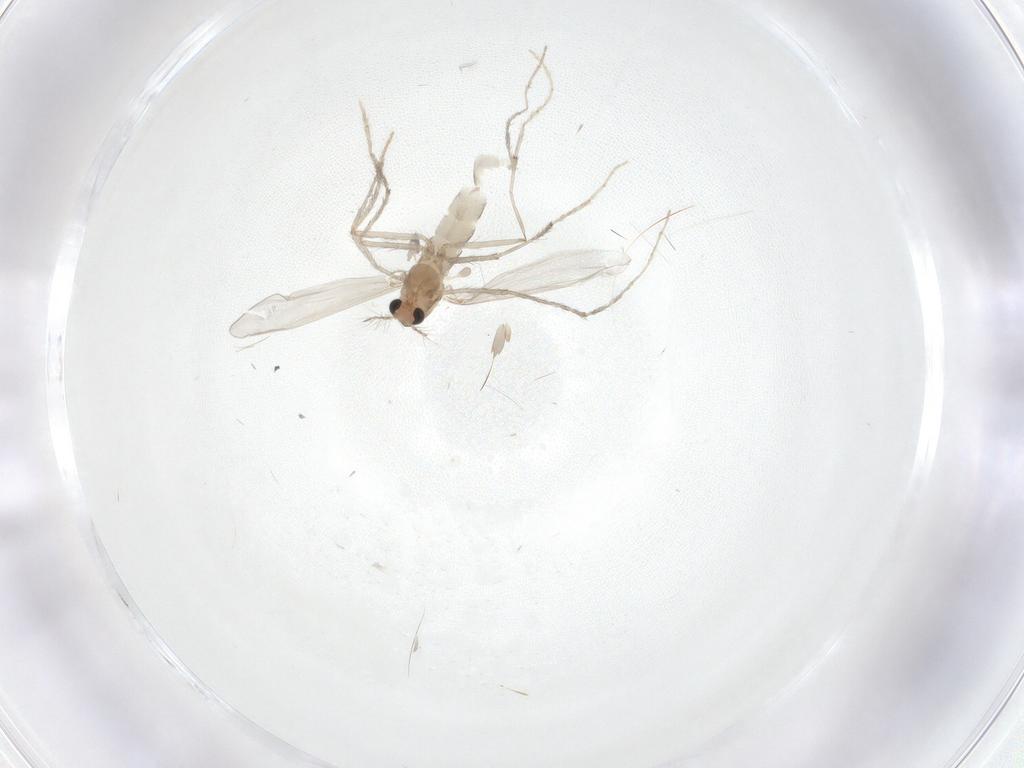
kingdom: Animalia
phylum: Arthropoda
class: Insecta
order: Diptera
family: Chironomidae
